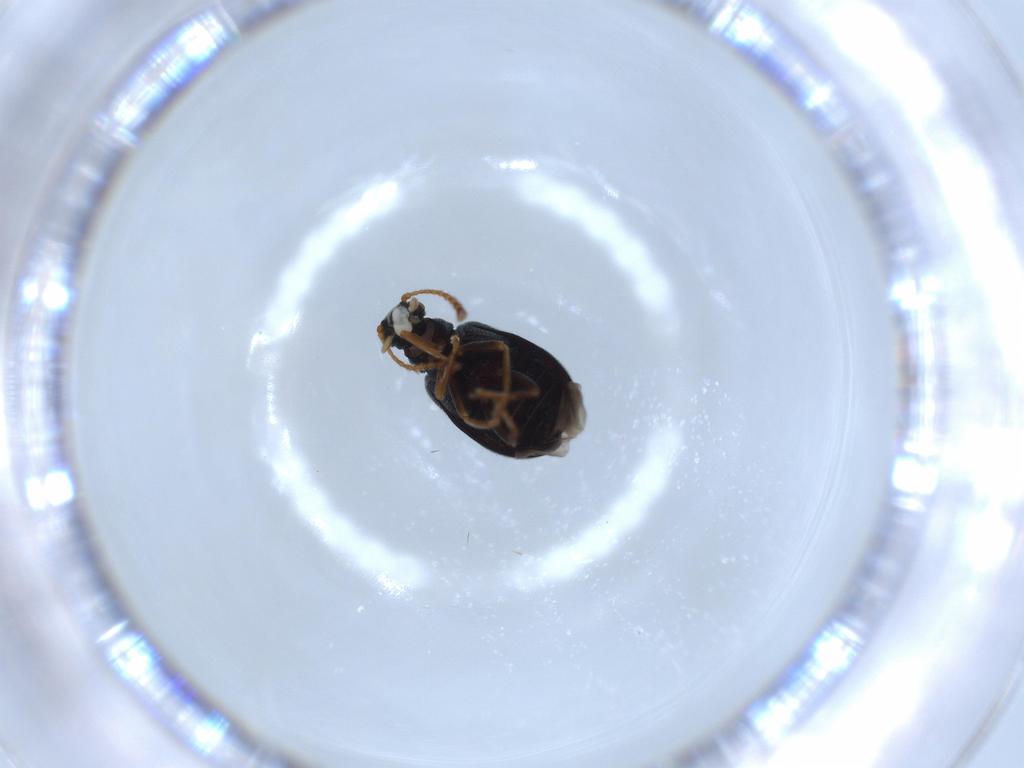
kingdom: Animalia
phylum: Arthropoda
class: Insecta
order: Coleoptera
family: Aderidae
